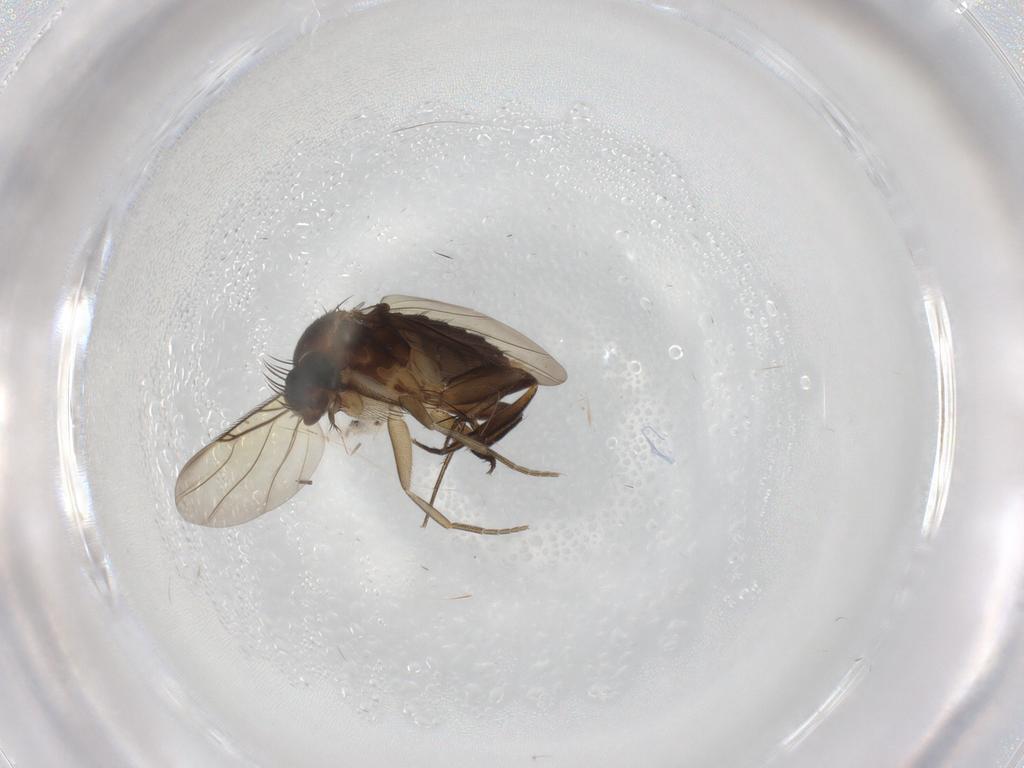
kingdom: Animalia
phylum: Arthropoda
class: Insecta
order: Diptera
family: Phoridae
